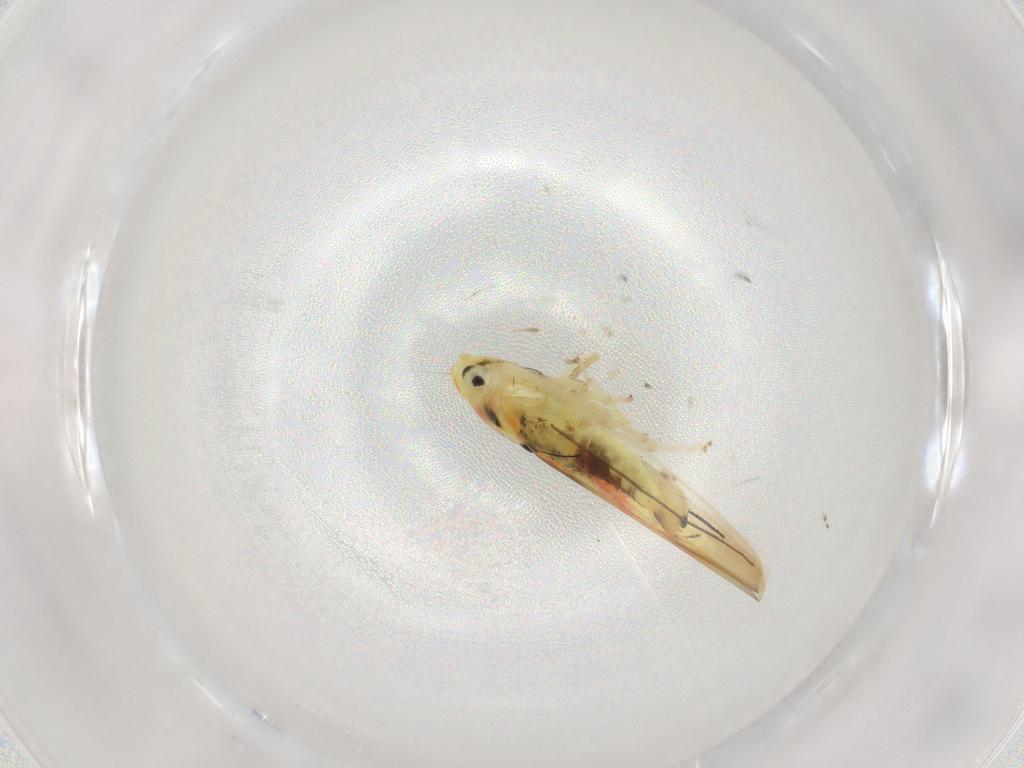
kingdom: Animalia
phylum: Arthropoda
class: Insecta
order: Hemiptera
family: Cicadellidae
